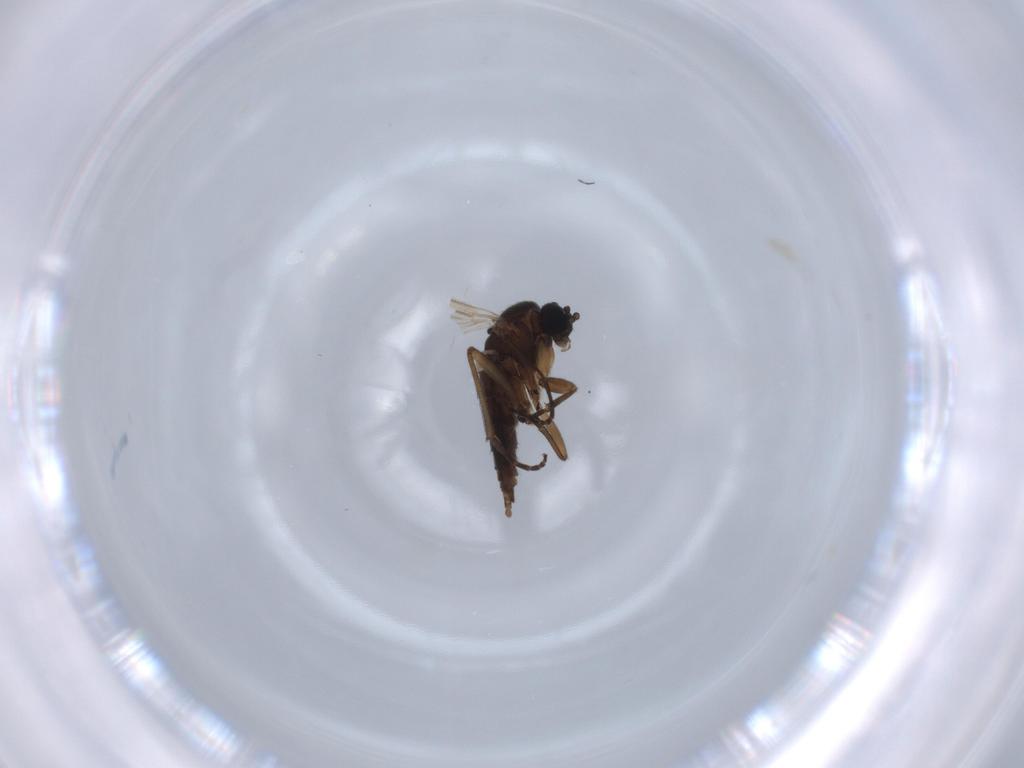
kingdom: Animalia
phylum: Arthropoda
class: Insecta
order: Diptera
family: Sciaridae
